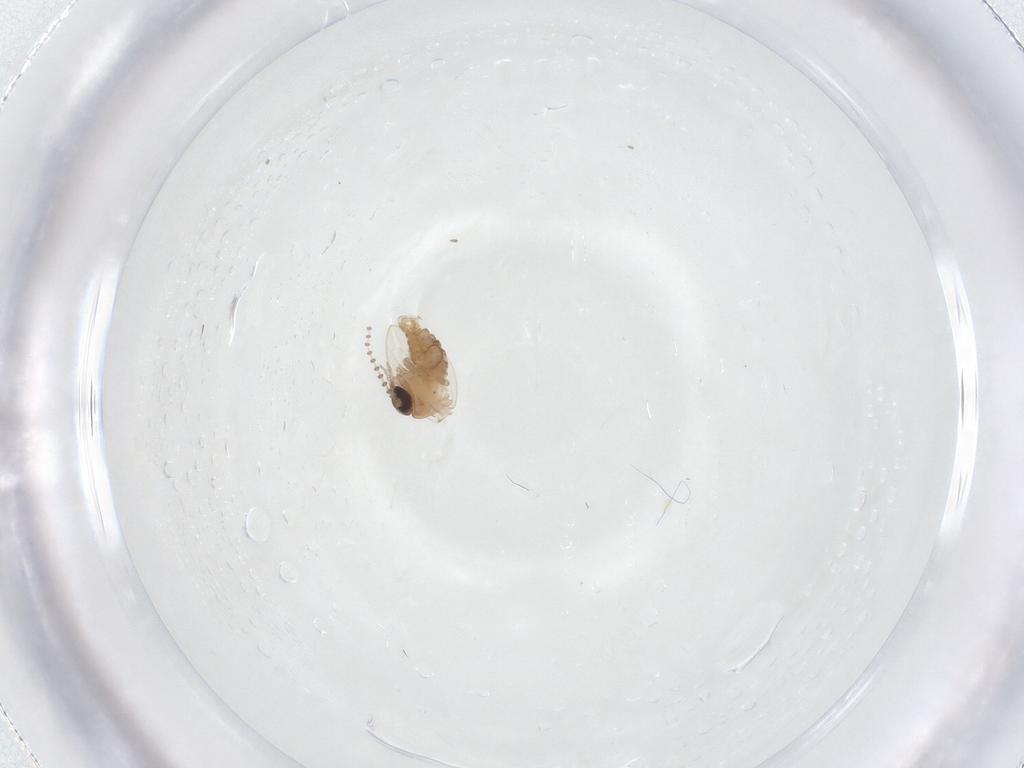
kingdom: Animalia
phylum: Arthropoda
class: Insecta
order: Diptera
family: Psychodidae
